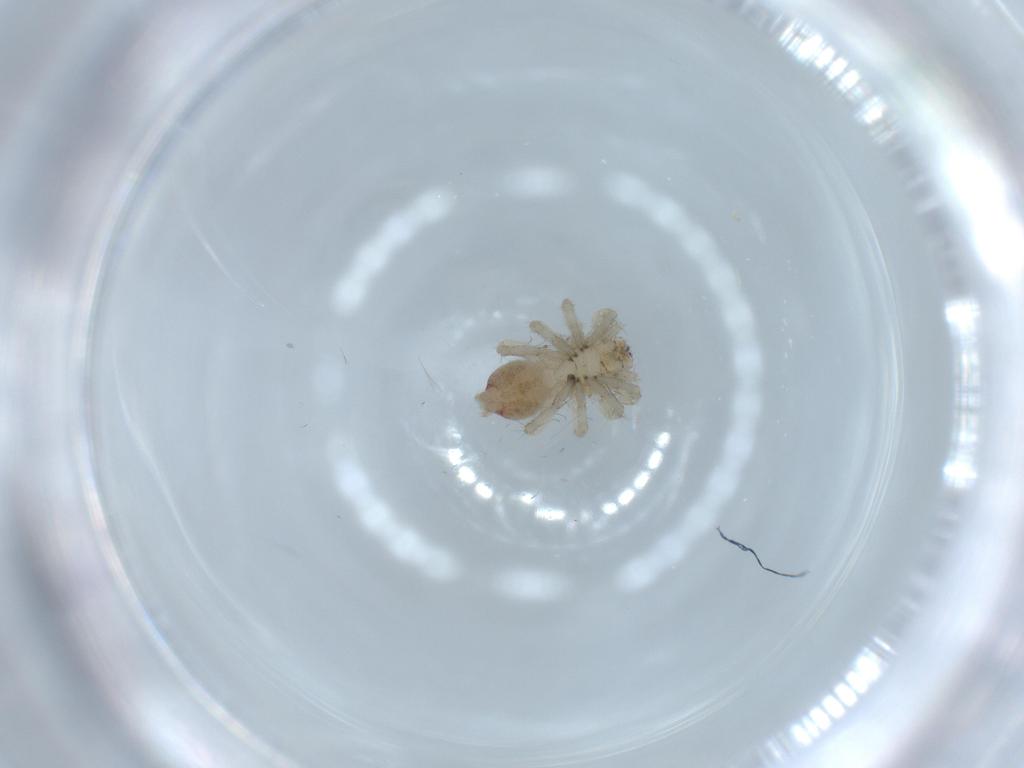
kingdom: Animalia
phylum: Arthropoda
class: Arachnida
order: Araneae
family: Clubionidae
